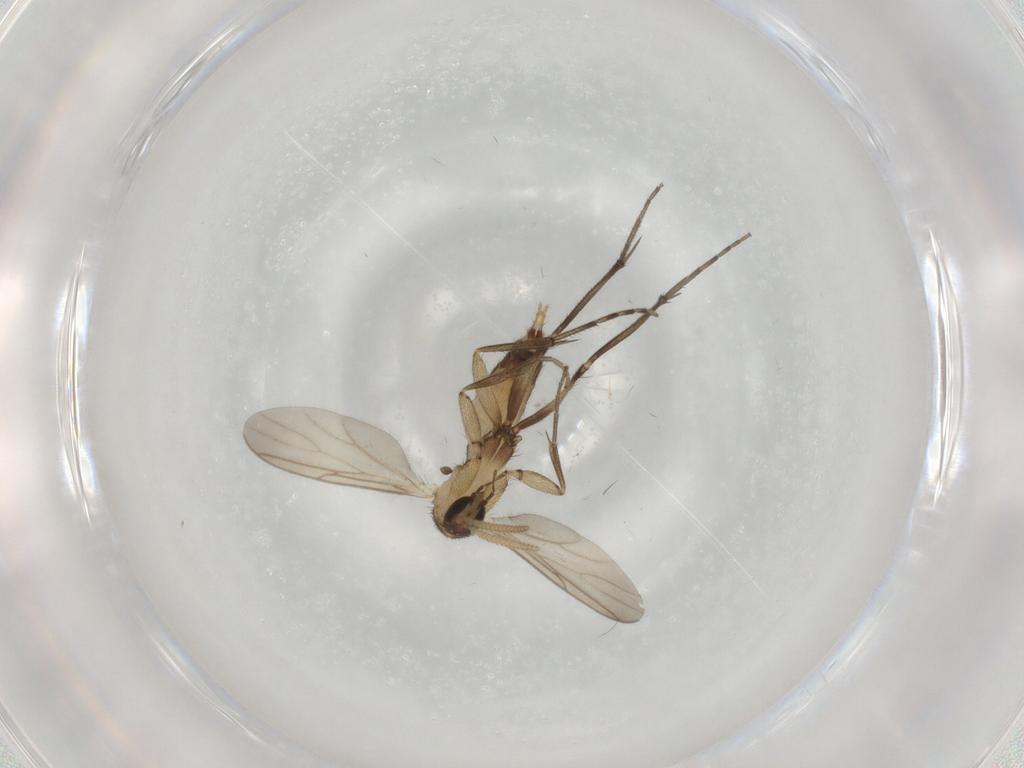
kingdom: Animalia
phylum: Arthropoda
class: Insecta
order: Diptera
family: Mycetophilidae
